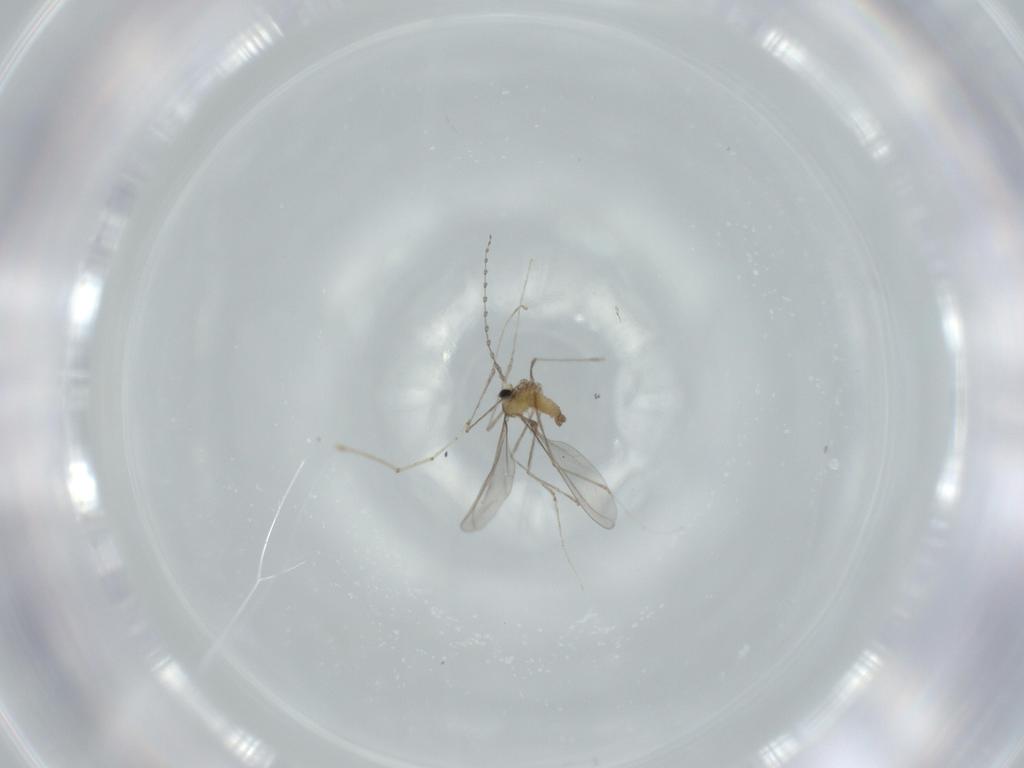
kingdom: Animalia
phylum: Arthropoda
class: Insecta
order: Diptera
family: Cecidomyiidae
